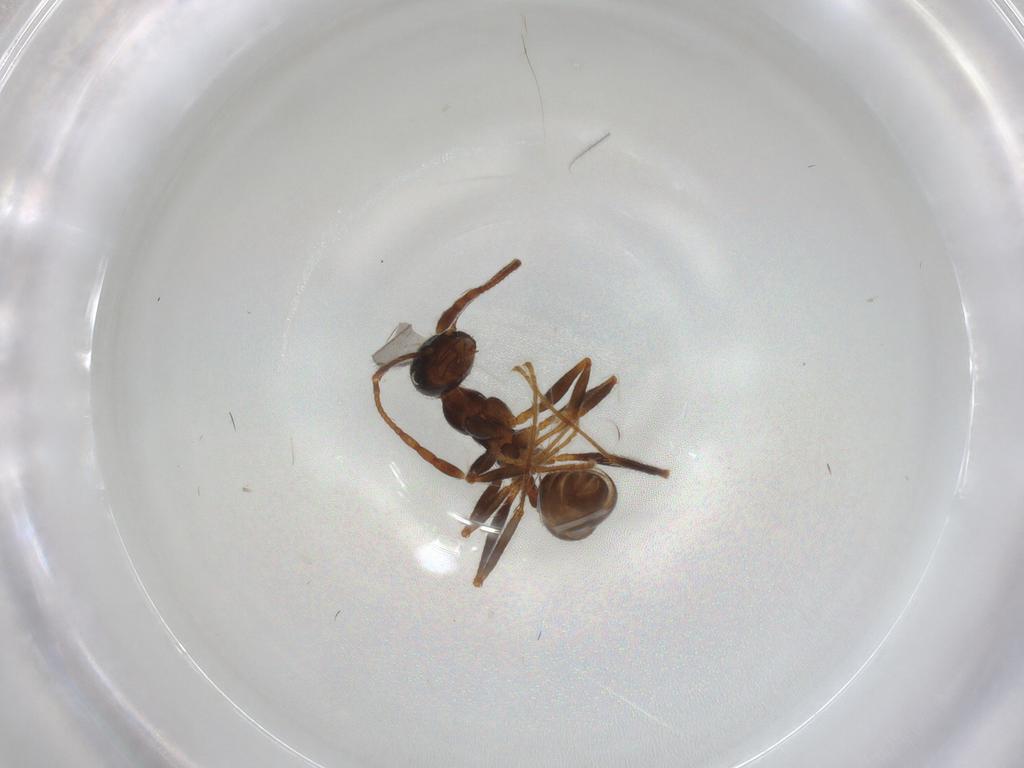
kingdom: Animalia
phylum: Arthropoda
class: Insecta
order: Hymenoptera
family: Formicidae
